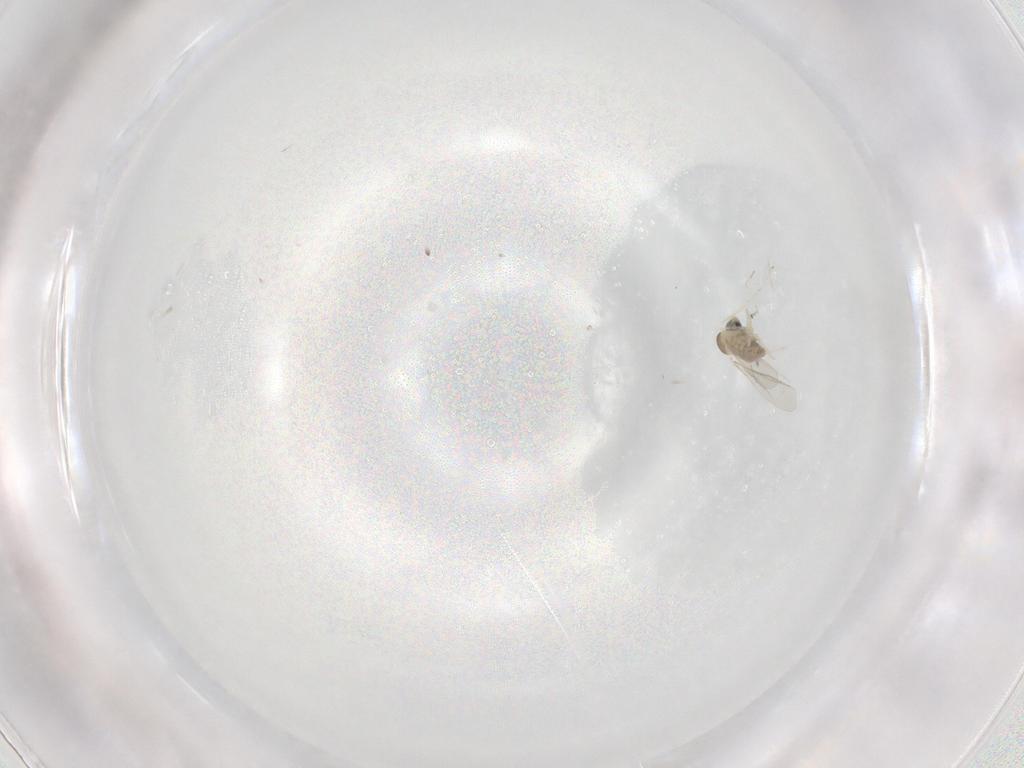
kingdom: Animalia
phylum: Arthropoda
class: Insecta
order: Diptera
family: Cecidomyiidae
